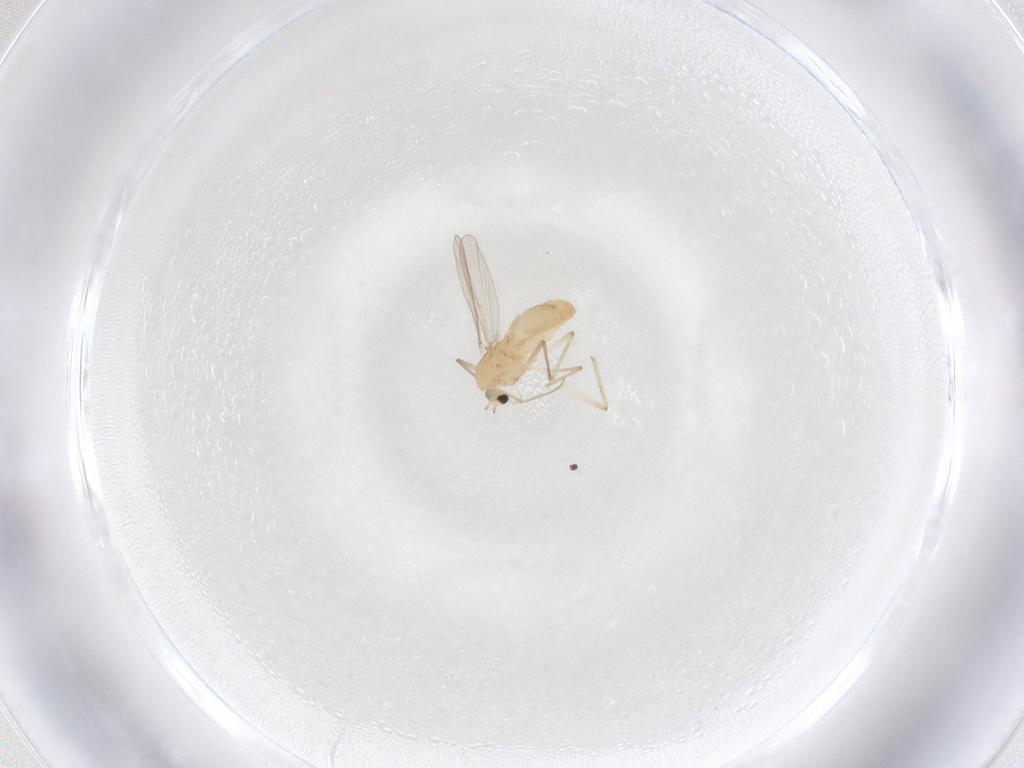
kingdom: Animalia
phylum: Arthropoda
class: Insecta
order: Diptera
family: Chironomidae
